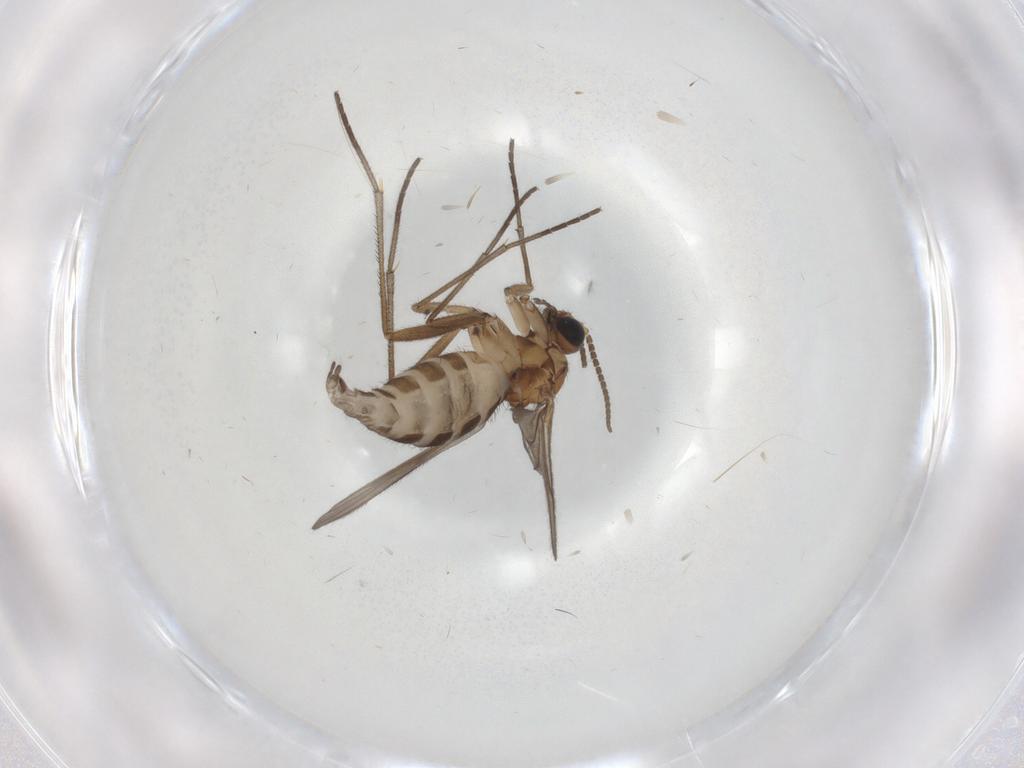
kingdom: Animalia
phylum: Arthropoda
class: Insecta
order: Diptera
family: Sciaridae
